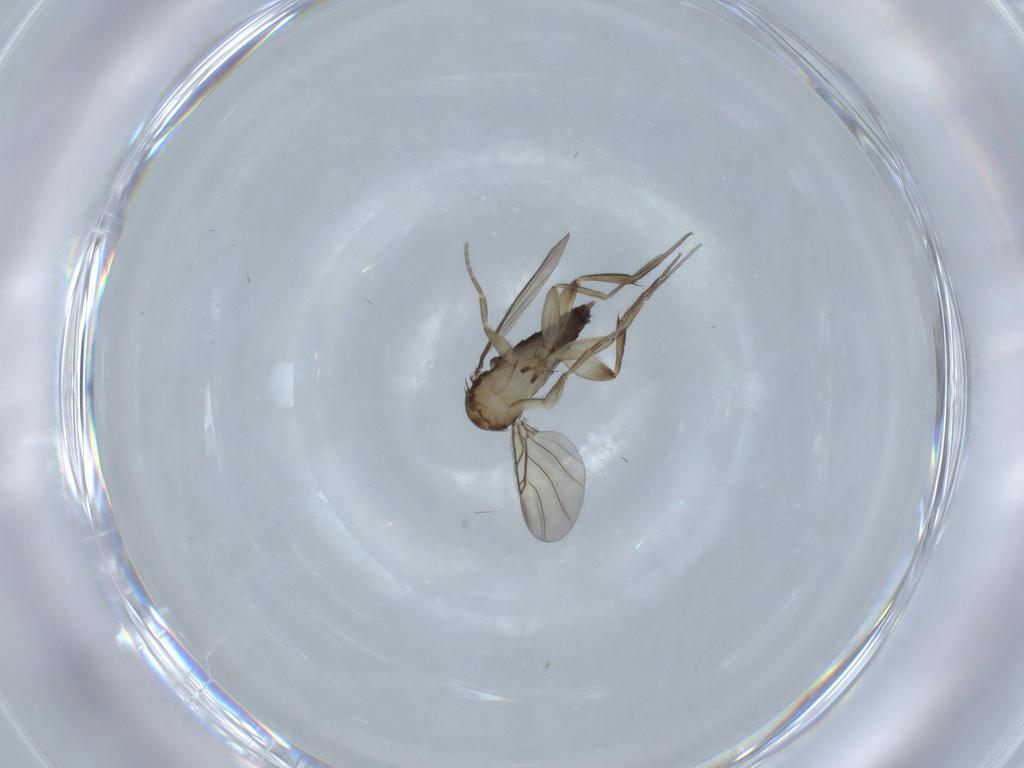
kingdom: Animalia
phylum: Arthropoda
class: Insecta
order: Diptera
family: Phoridae
